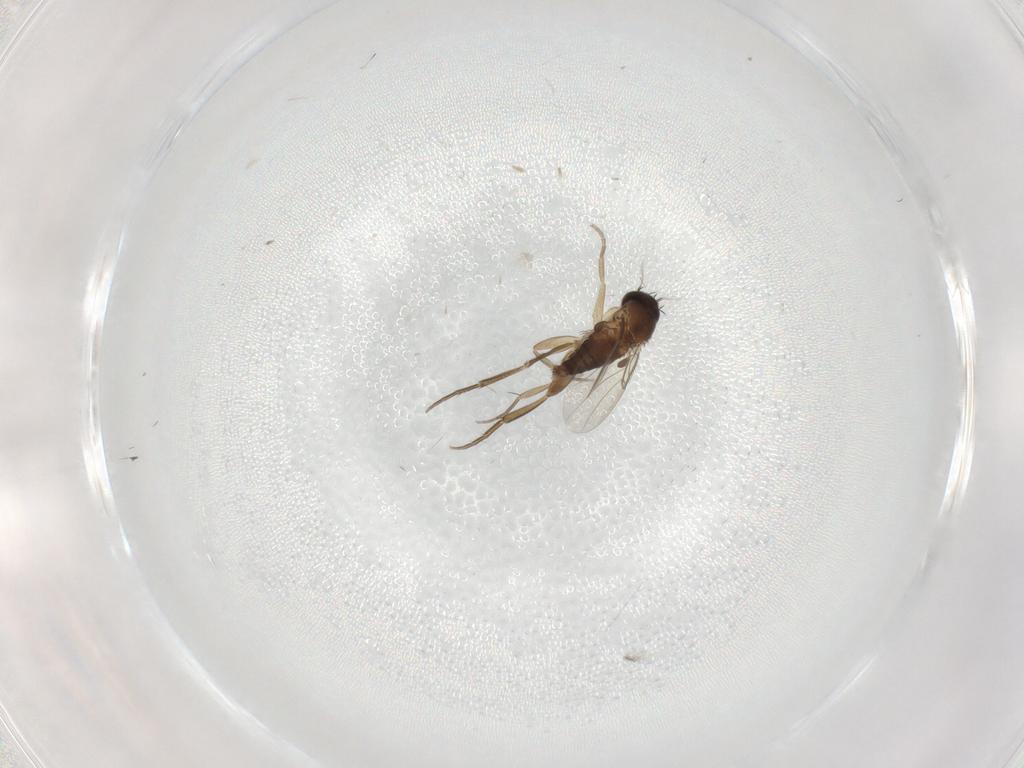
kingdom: Animalia
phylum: Arthropoda
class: Insecta
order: Diptera
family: Phoridae
